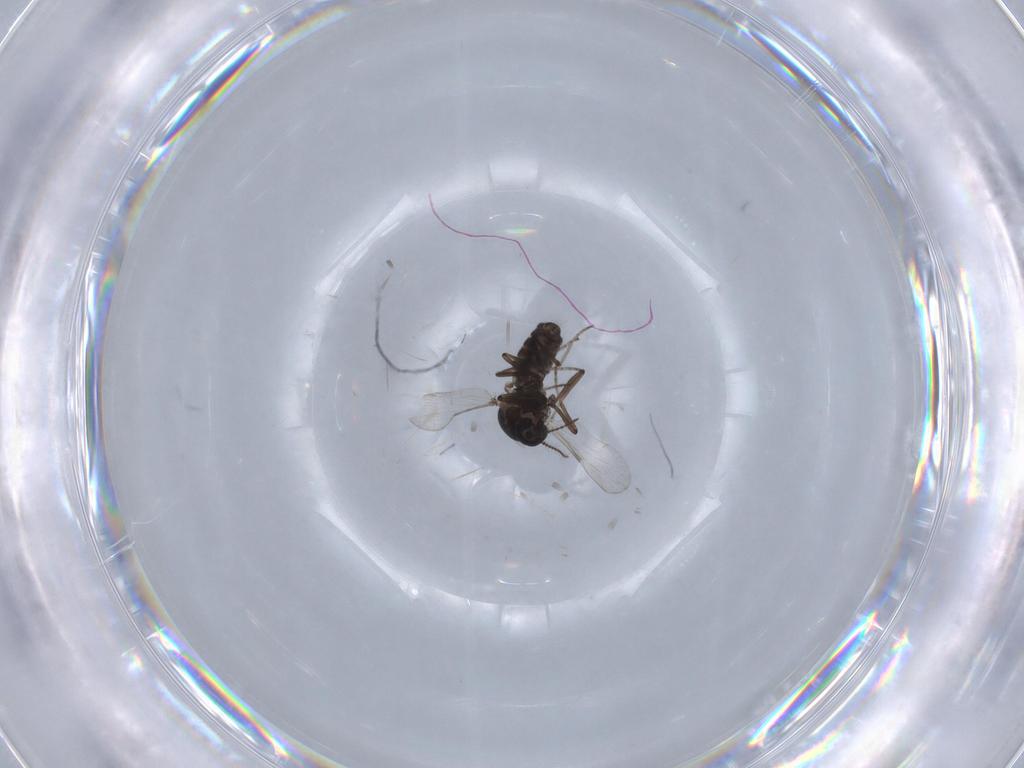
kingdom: Animalia
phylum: Arthropoda
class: Insecta
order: Diptera
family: Ceratopogonidae
